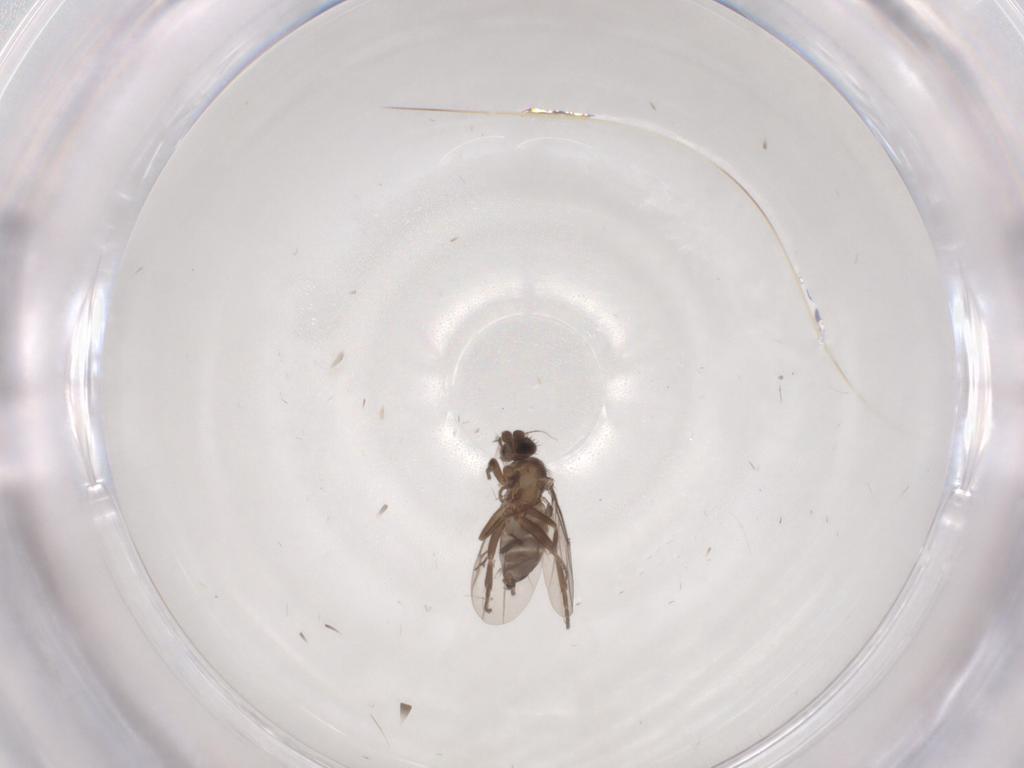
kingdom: Animalia
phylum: Arthropoda
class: Insecta
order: Diptera
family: Phoridae
